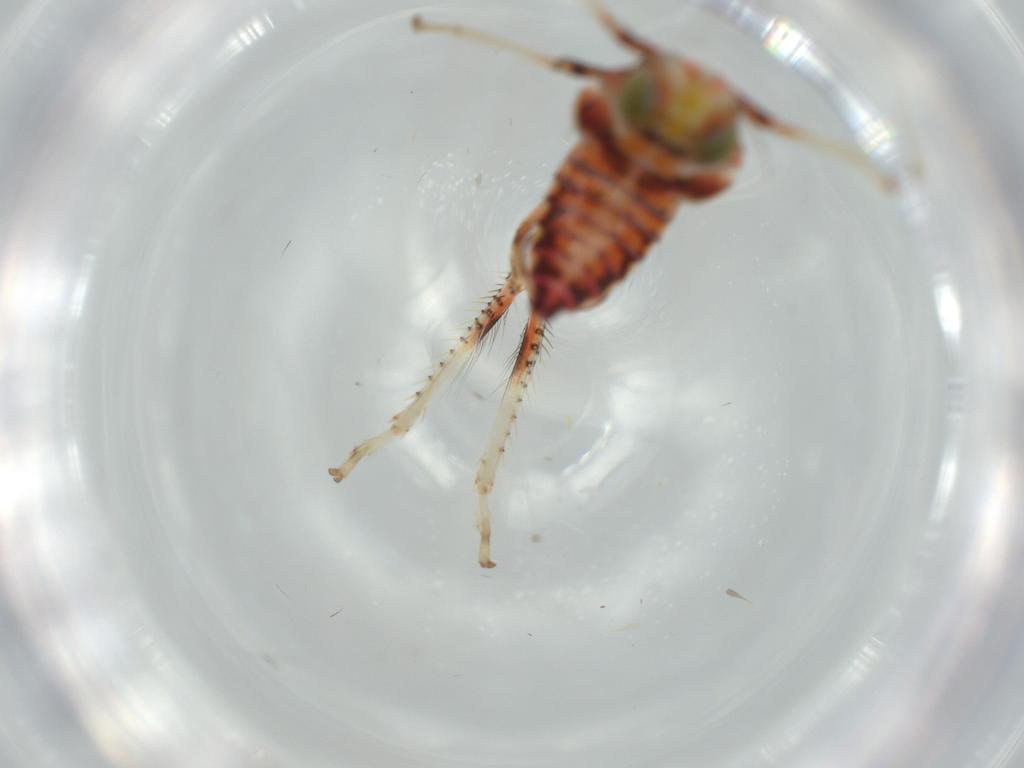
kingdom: Animalia
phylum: Arthropoda
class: Insecta
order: Hemiptera
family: Cicadellidae
